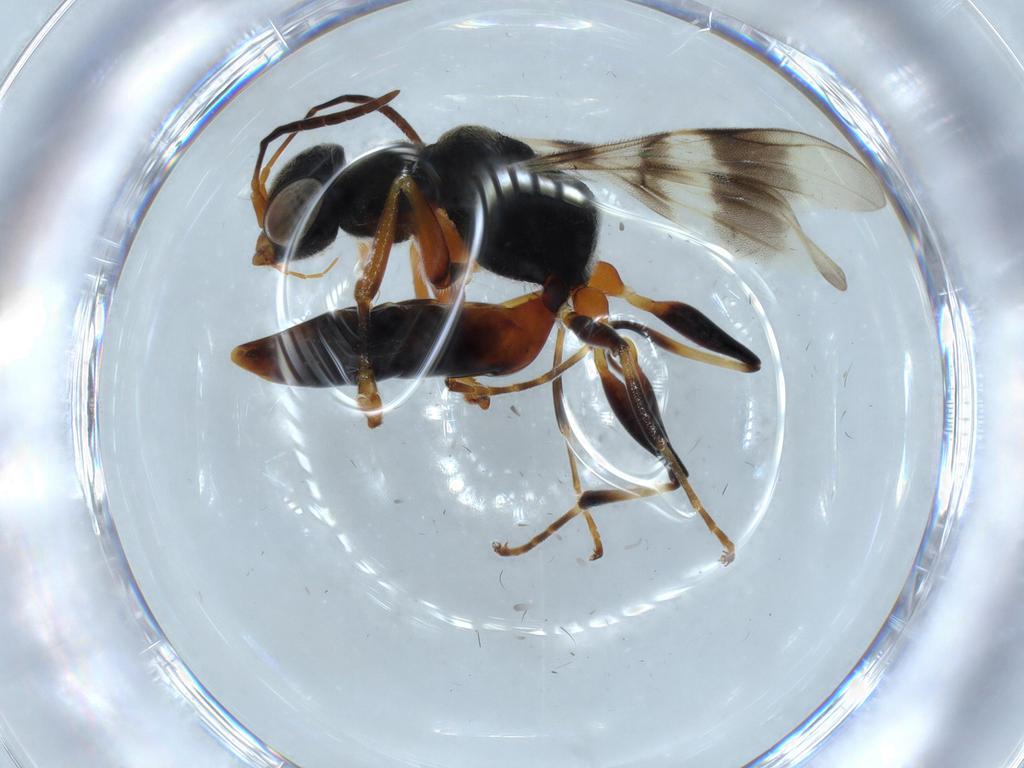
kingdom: Animalia
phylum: Arthropoda
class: Insecta
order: Hymenoptera
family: Dryinidae
